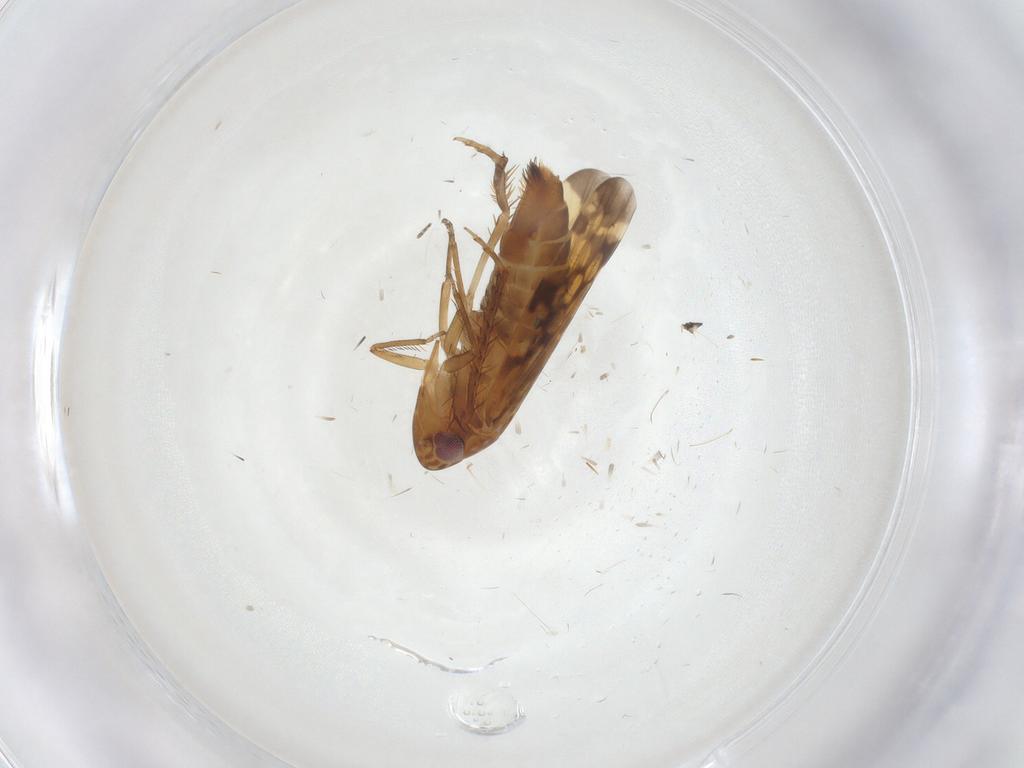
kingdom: Animalia
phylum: Arthropoda
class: Insecta
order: Hemiptera
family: Cicadellidae
